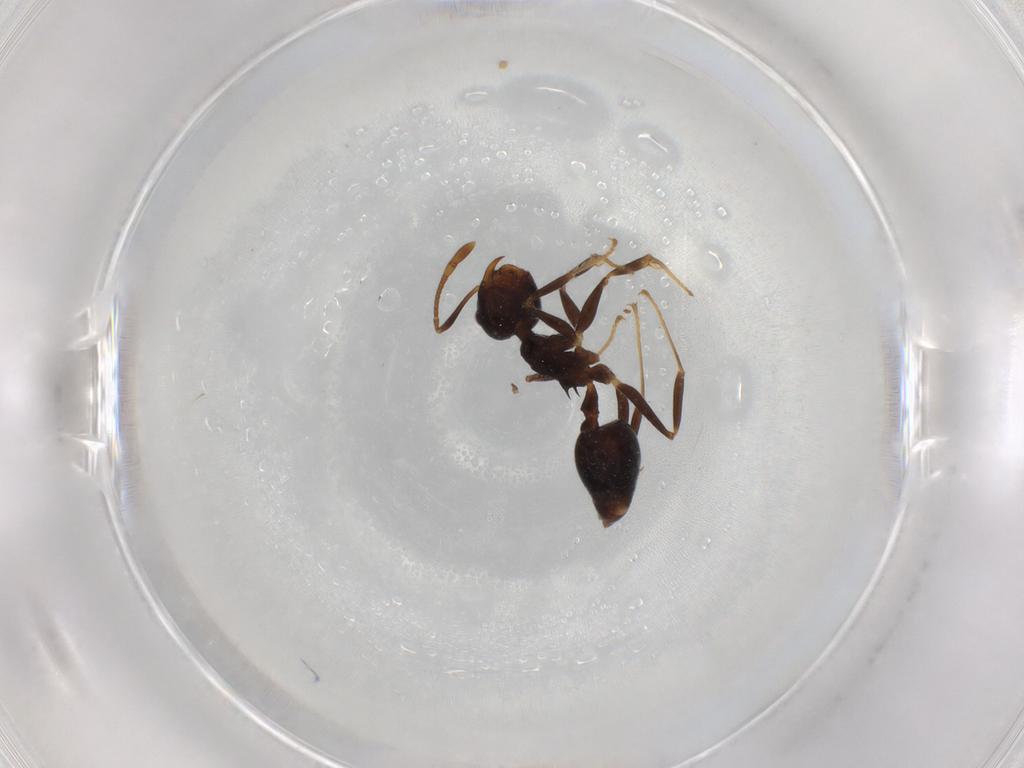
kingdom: Animalia
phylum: Arthropoda
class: Insecta
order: Hymenoptera
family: Formicidae
